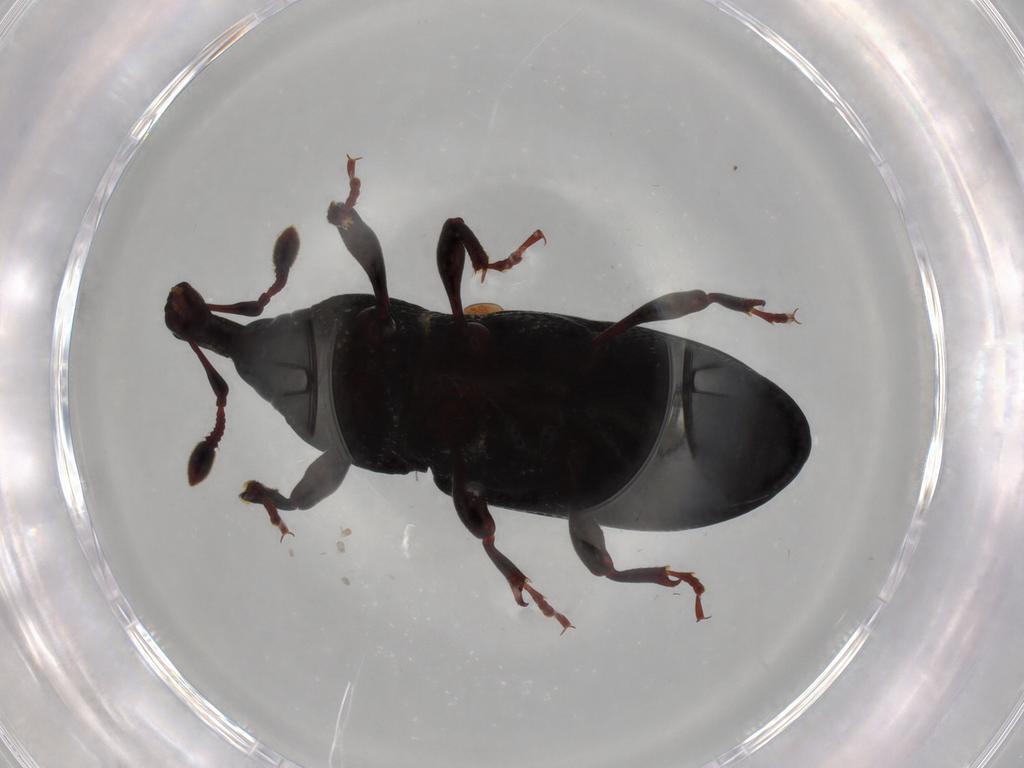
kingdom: Animalia
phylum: Arthropoda
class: Insecta
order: Coleoptera
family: Curculionidae
